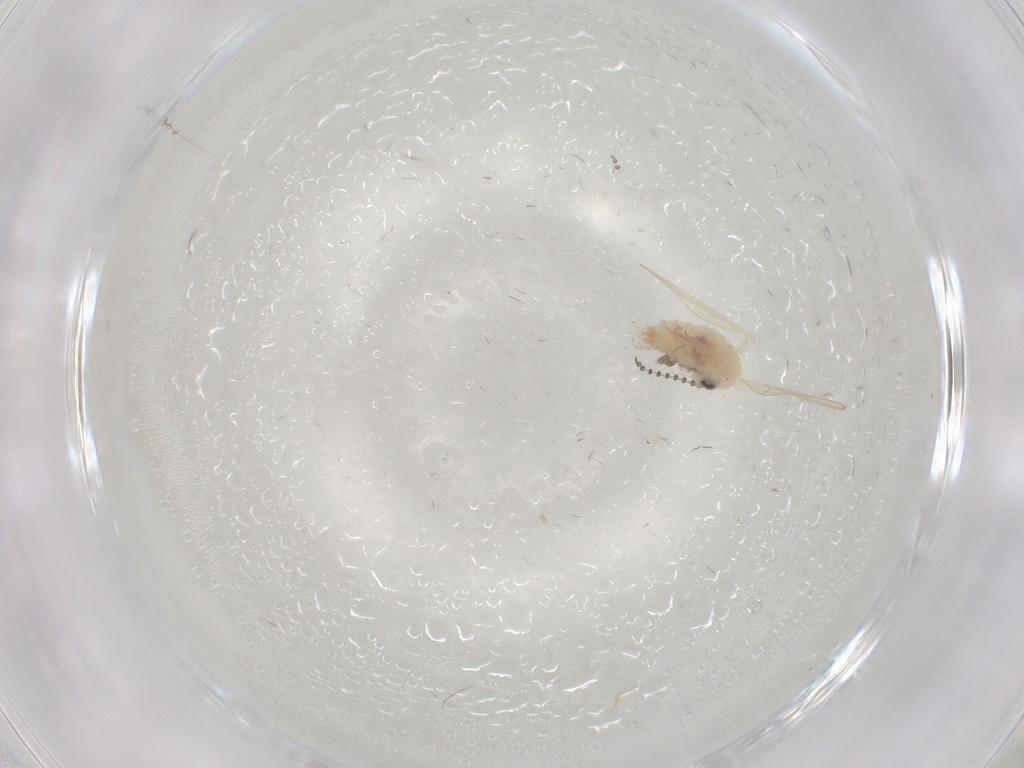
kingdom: Animalia
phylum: Arthropoda
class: Insecta
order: Diptera
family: Psychodidae
